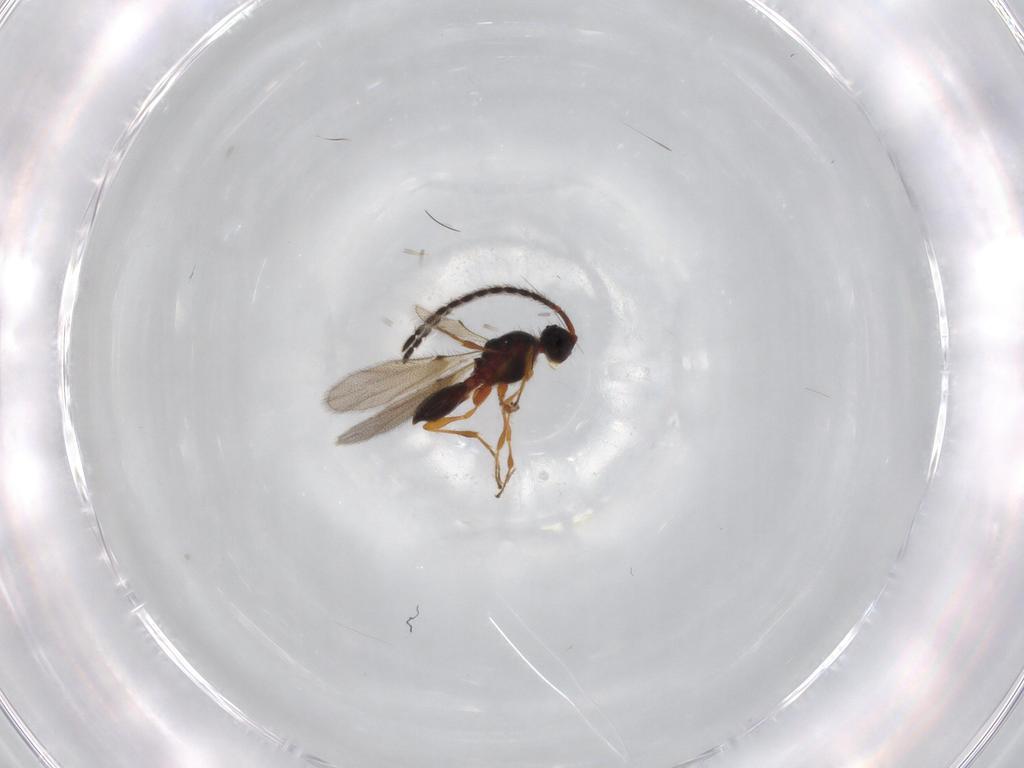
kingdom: Animalia
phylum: Arthropoda
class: Insecta
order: Hymenoptera
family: Diapriidae
